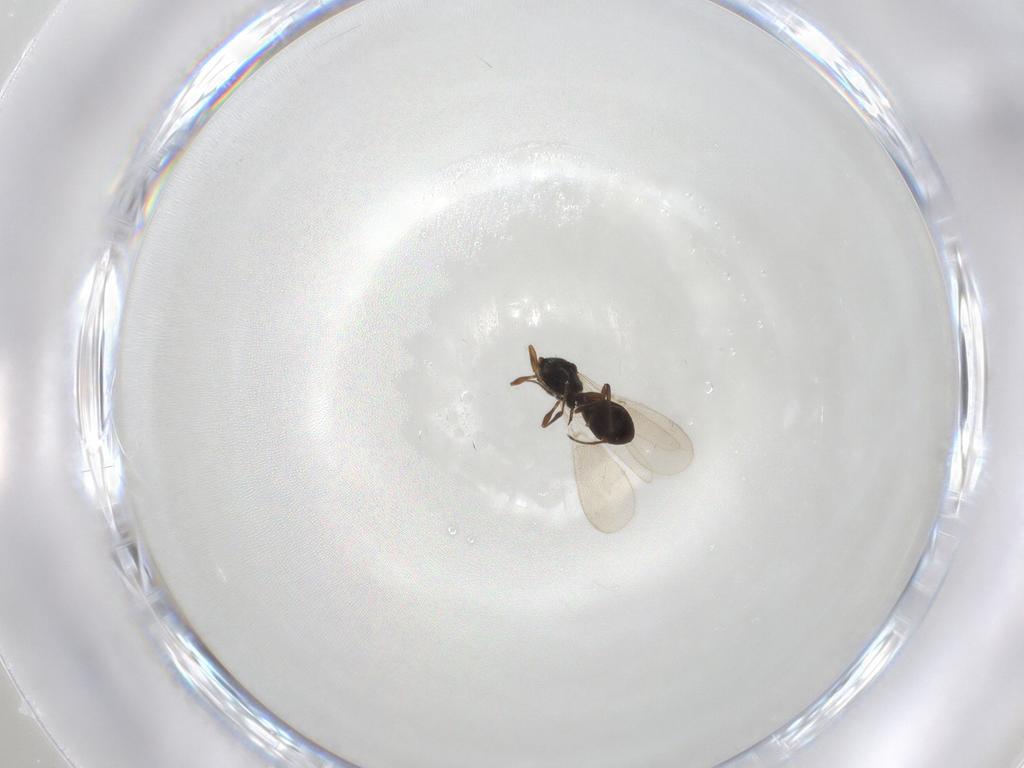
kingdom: Animalia
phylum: Arthropoda
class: Insecta
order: Hymenoptera
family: Platygastridae
